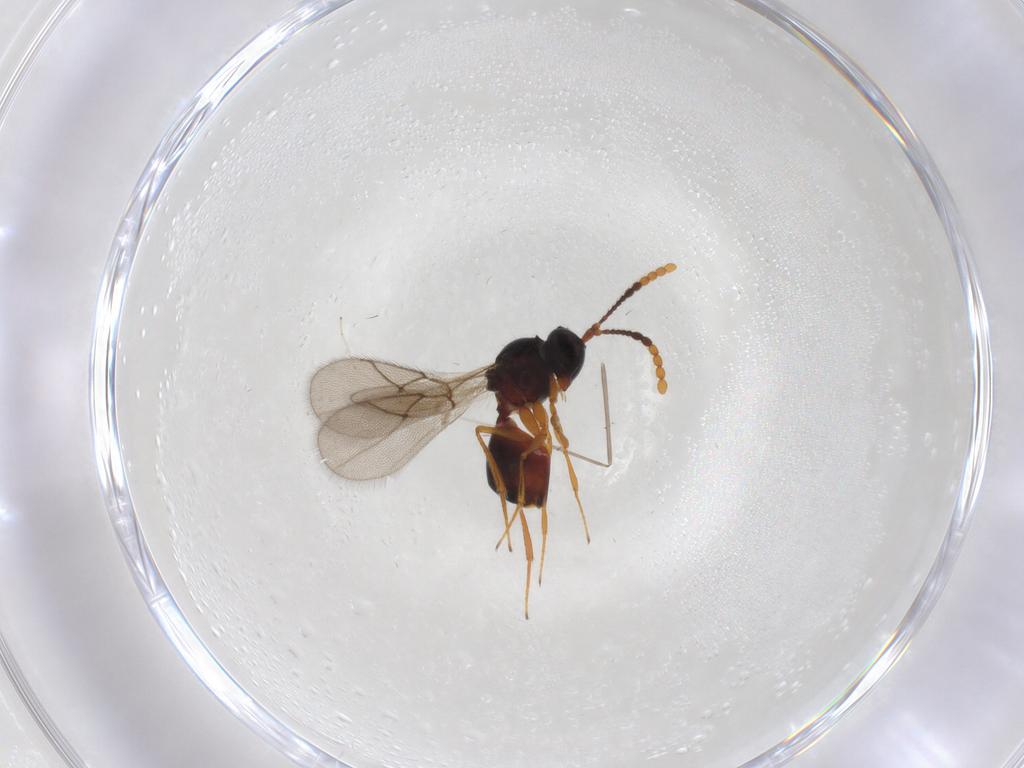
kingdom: Animalia
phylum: Arthropoda
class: Insecta
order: Hymenoptera
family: Figitidae
